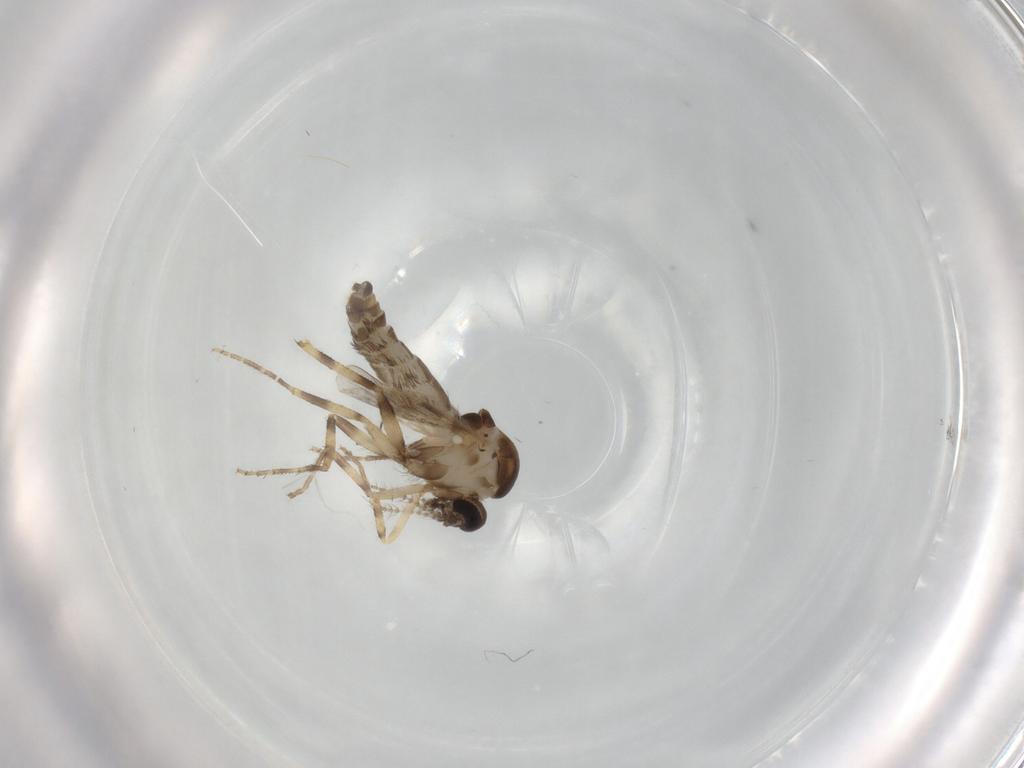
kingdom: Animalia
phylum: Arthropoda
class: Insecta
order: Diptera
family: Ceratopogonidae
